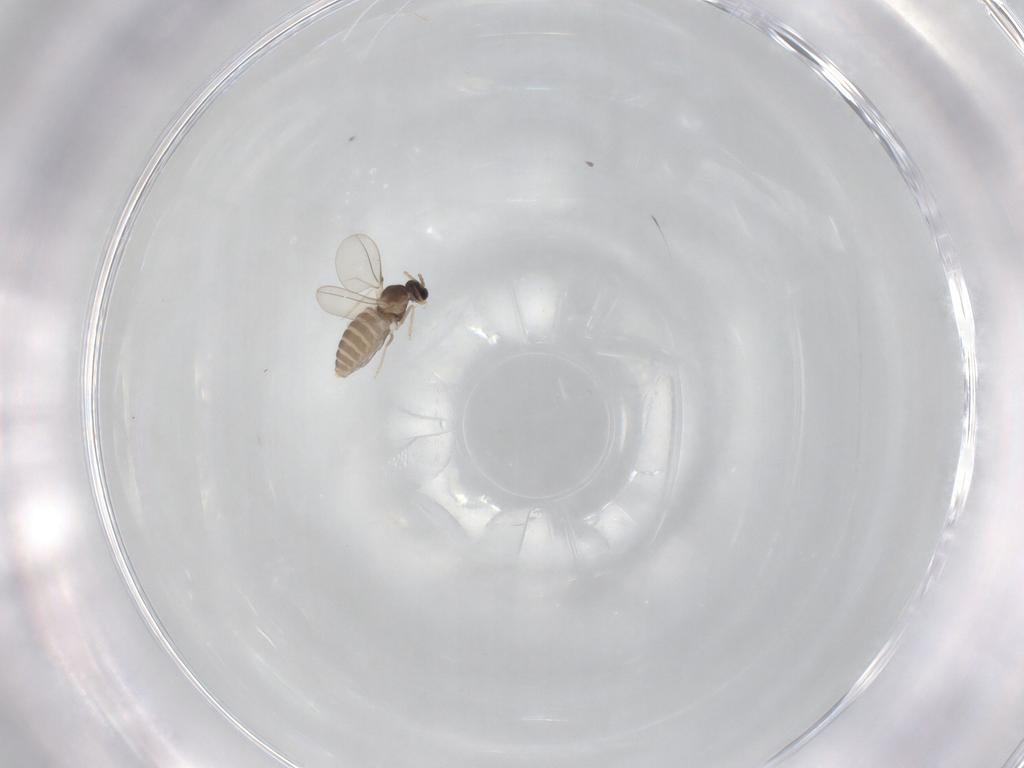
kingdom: Animalia
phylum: Arthropoda
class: Insecta
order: Diptera
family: Cecidomyiidae
